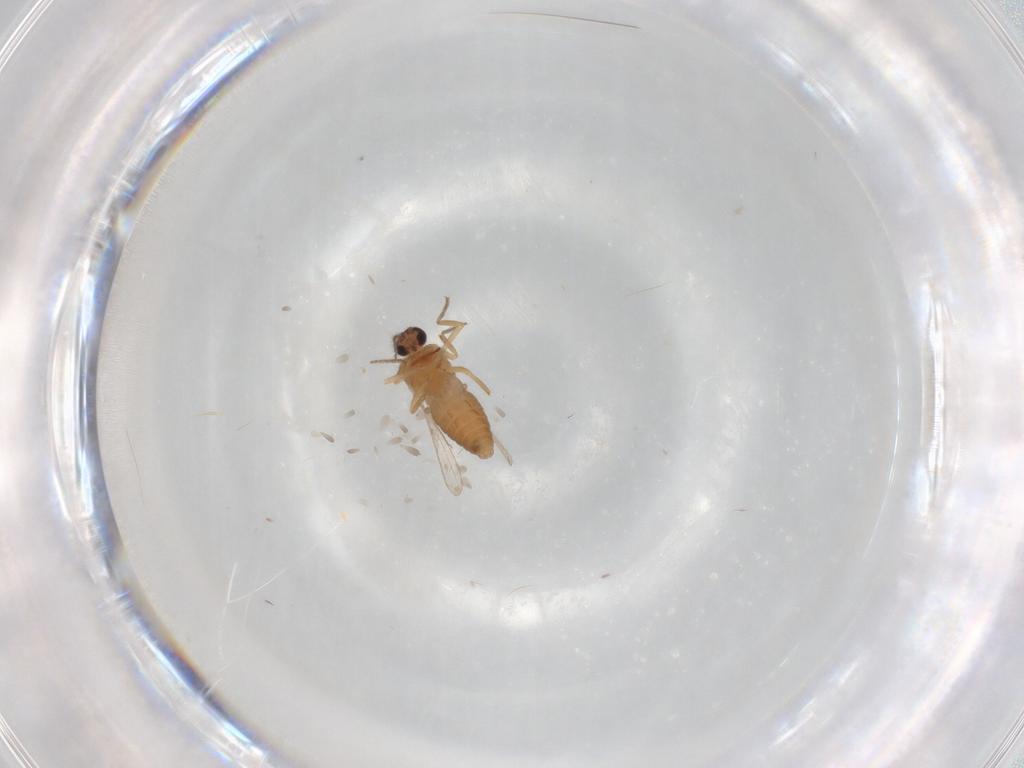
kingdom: Animalia
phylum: Arthropoda
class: Insecta
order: Diptera
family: Ceratopogonidae
